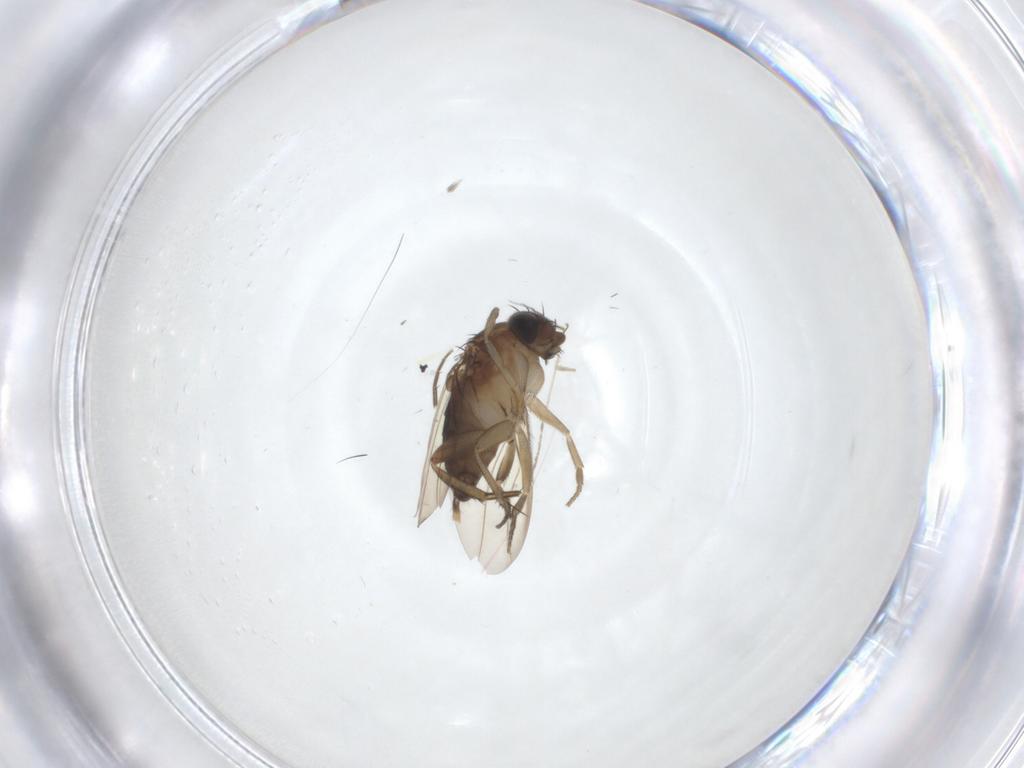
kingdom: Animalia
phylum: Arthropoda
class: Insecta
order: Diptera
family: Phoridae
